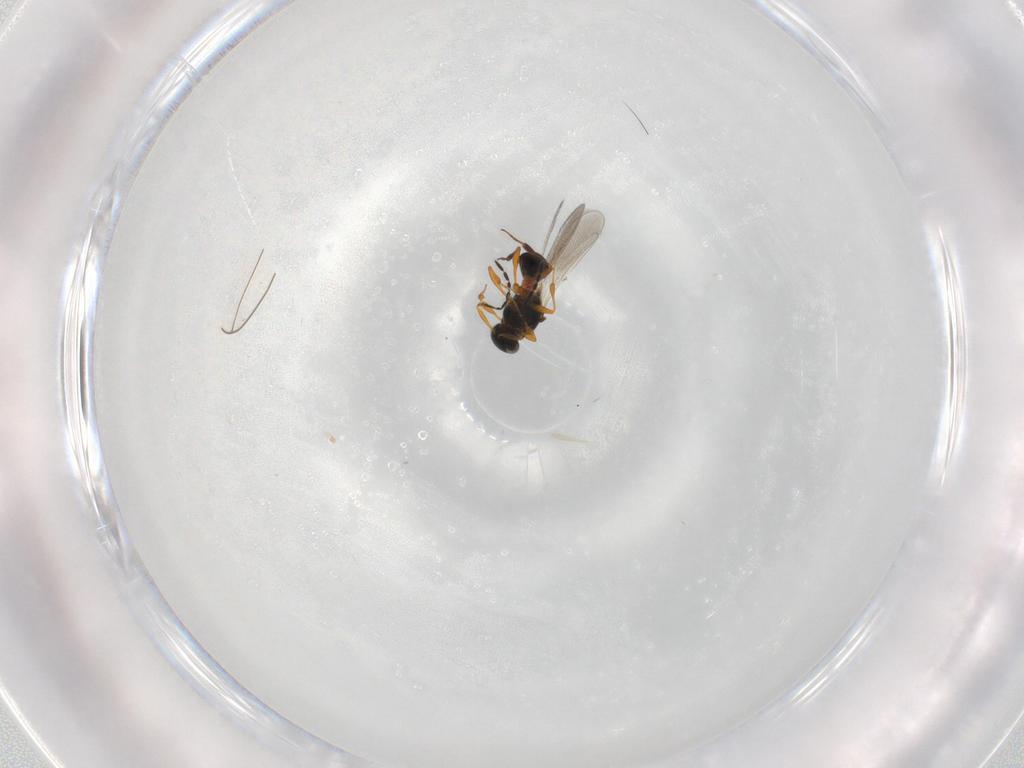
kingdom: Animalia
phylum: Arthropoda
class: Insecta
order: Hymenoptera
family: Platygastridae
